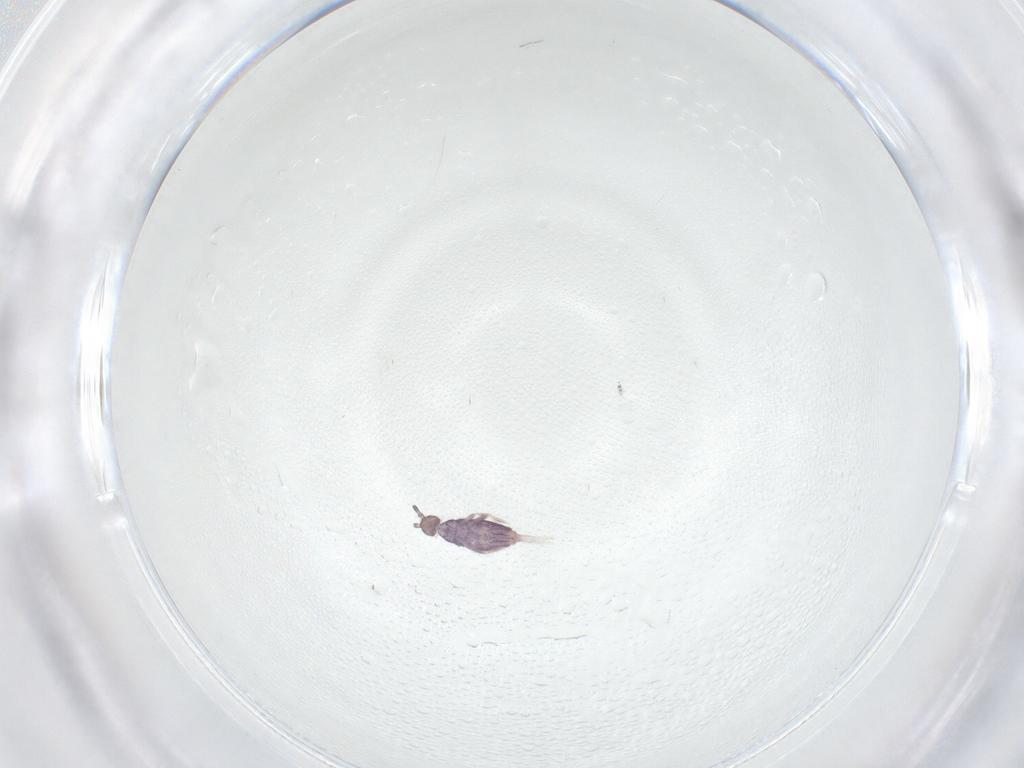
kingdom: Animalia
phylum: Arthropoda
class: Collembola
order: Entomobryomorpha
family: Entomobryidae
